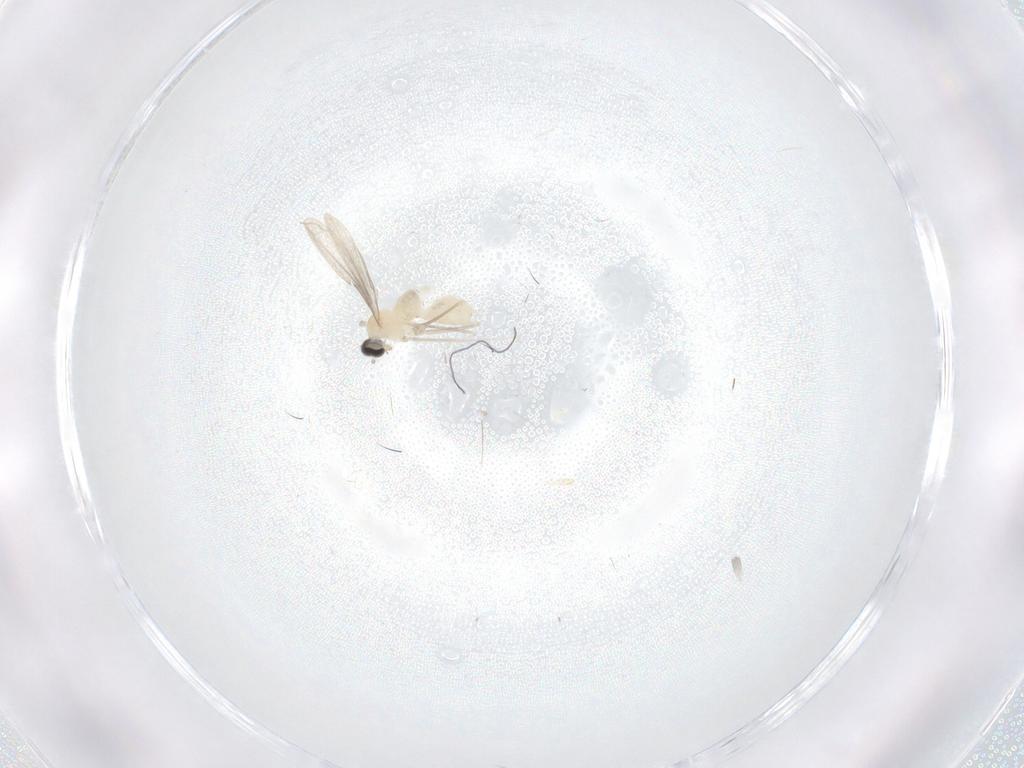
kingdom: Animalia
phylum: Arthropoda
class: Insecta
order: Diptera
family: Cecidomyiidae
